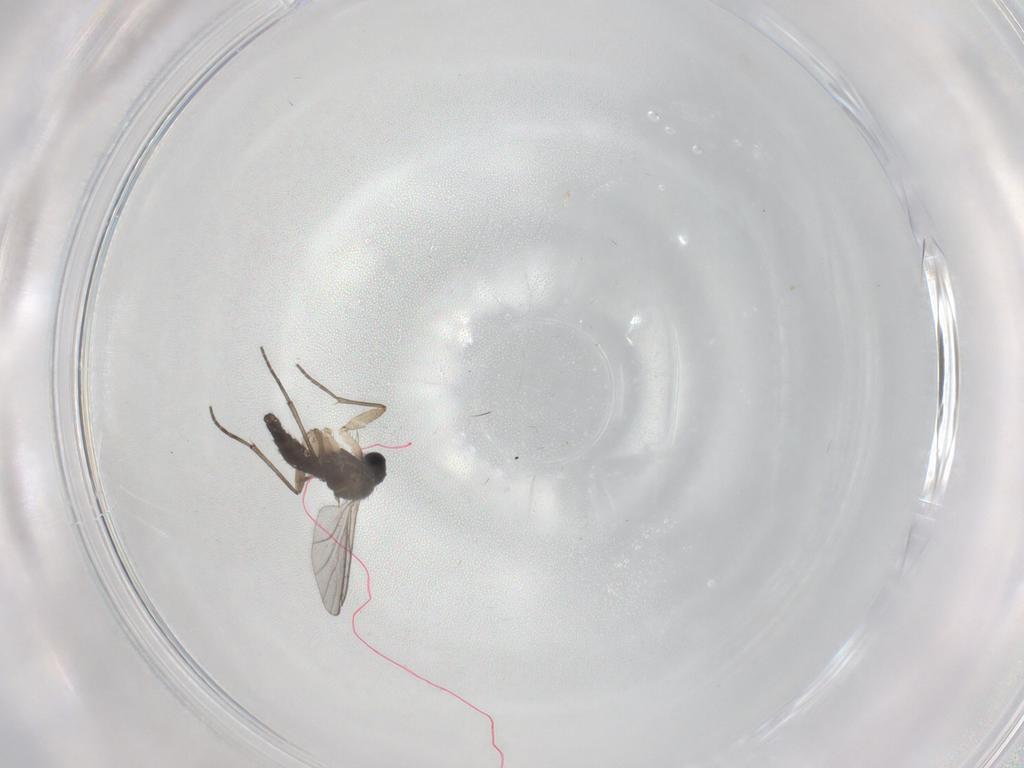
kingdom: Animalia
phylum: Arthropoda
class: Insecta
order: Diptera
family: Sciaridae
